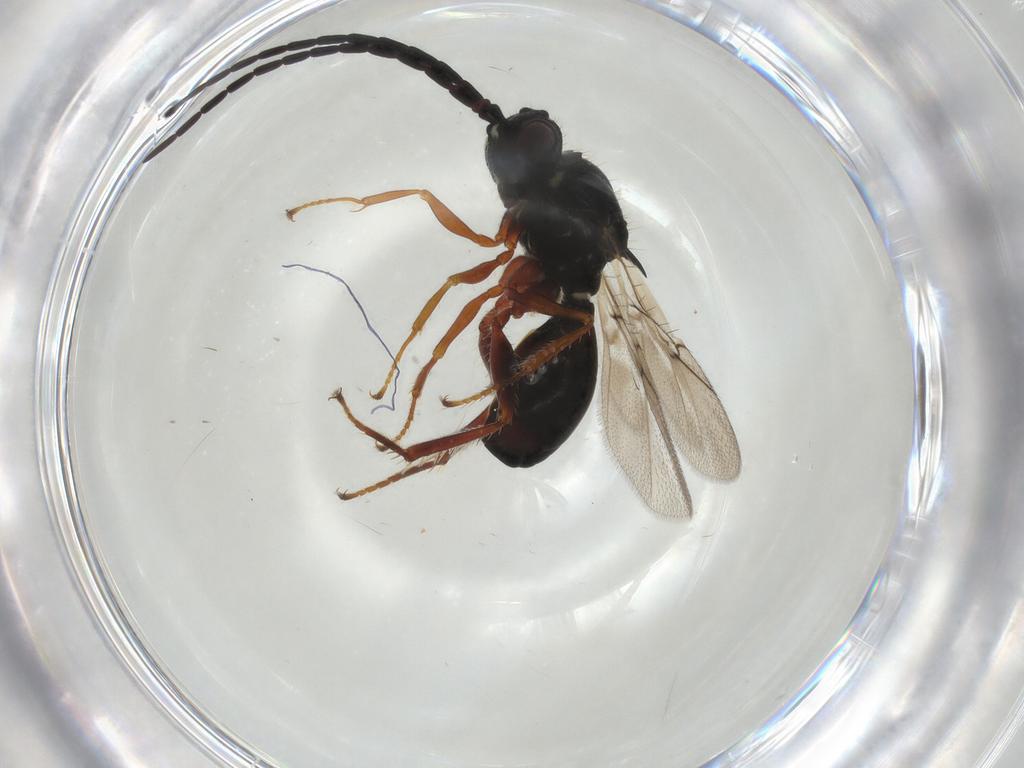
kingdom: Animalia
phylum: Arthropoda
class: Insecta
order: Hymenoptera
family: Figitidae
